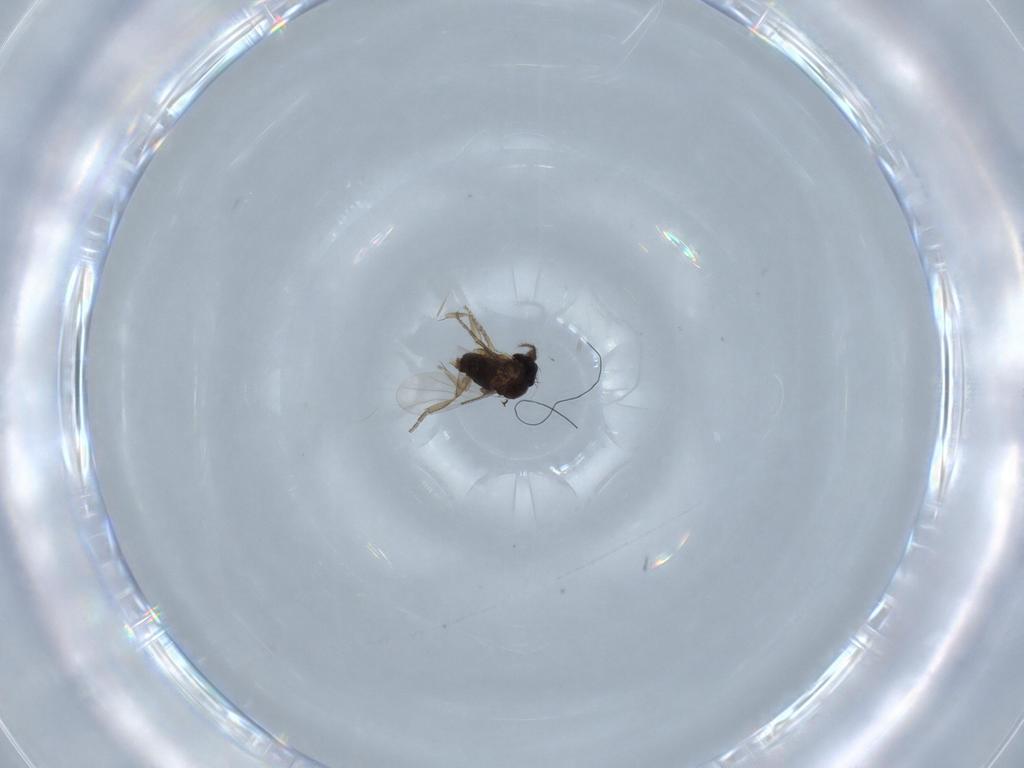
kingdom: Animalia
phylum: Arthropoda
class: Insecta
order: Diptera
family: Phoridae
